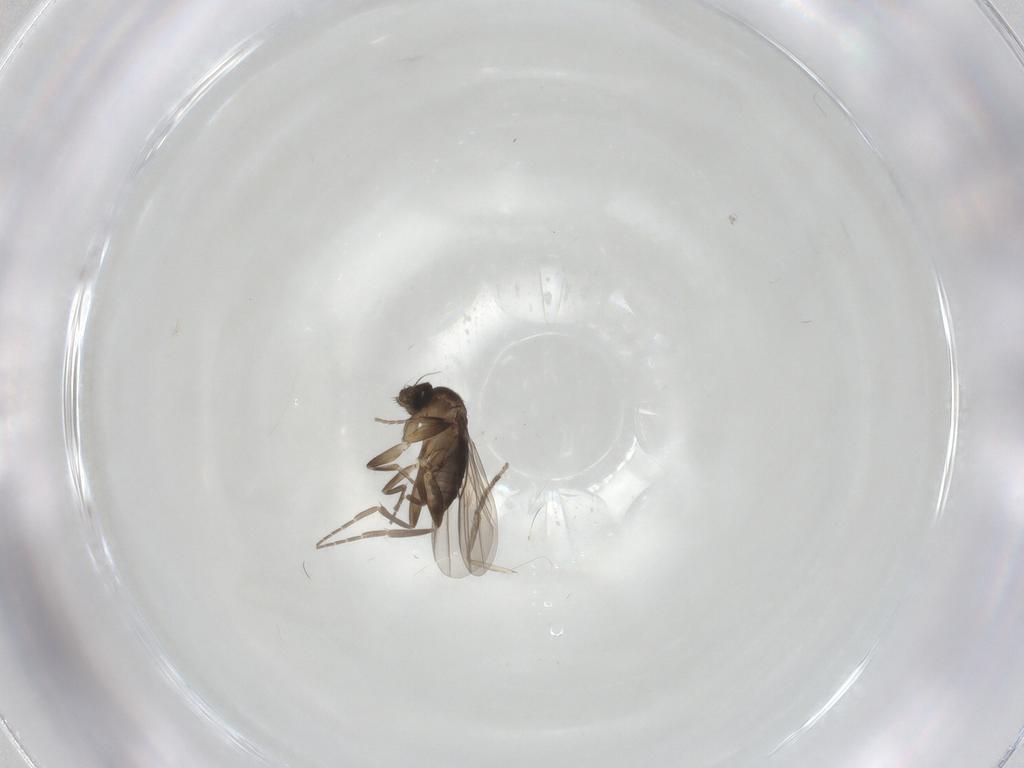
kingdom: Animalia
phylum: Arthropoda
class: Insecta
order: Diptera
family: Phoridae
